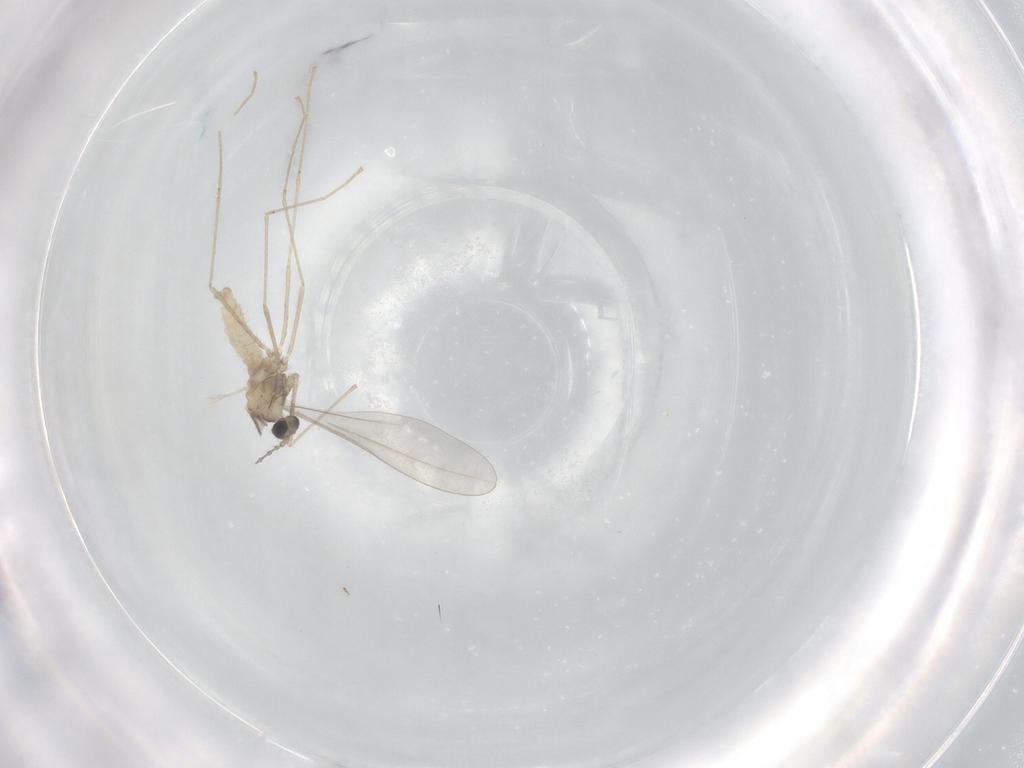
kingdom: Animalia
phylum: Arthropoda
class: Insecta
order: Diptera
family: Cecidomyiidae
